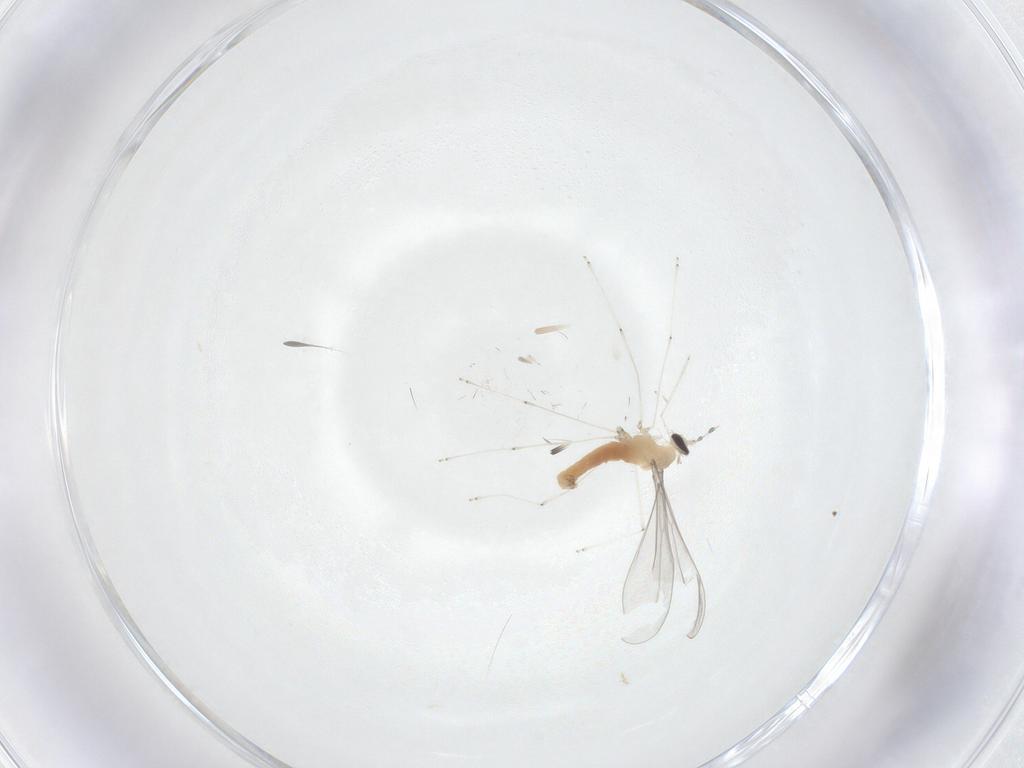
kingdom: Animalia
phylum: Arthropoda
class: Insecta
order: Diptera
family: Cecidomyiidae
